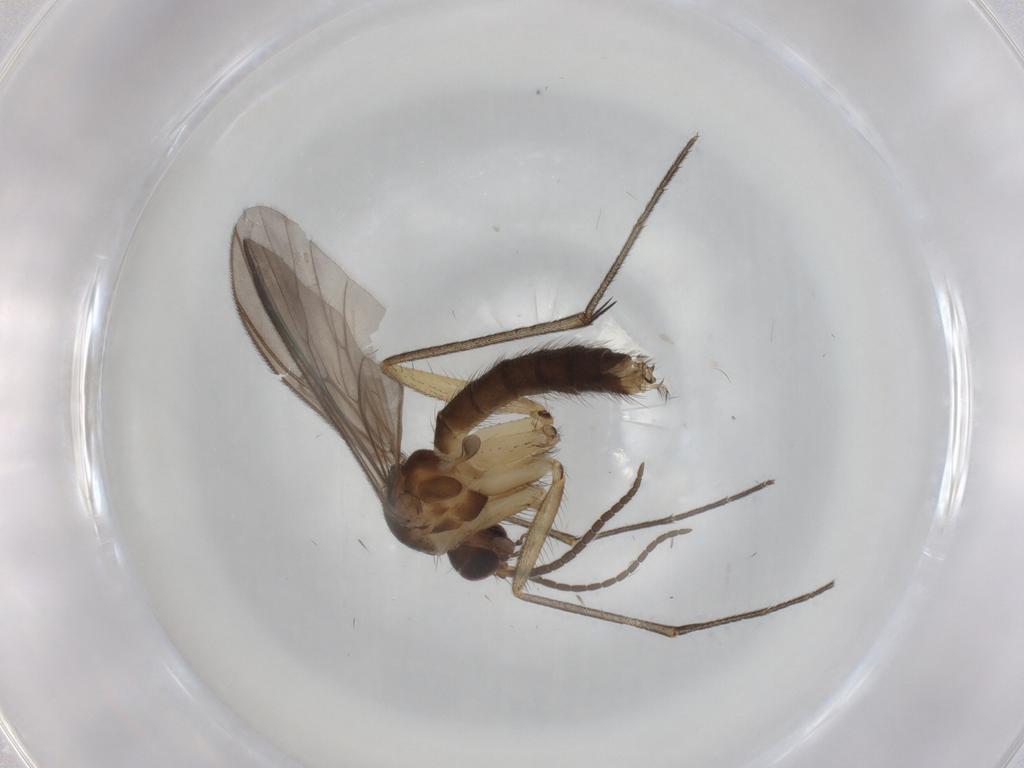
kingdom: Animalia
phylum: Arthropoda
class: Insecta
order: Diptera
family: Mycetophilidae
